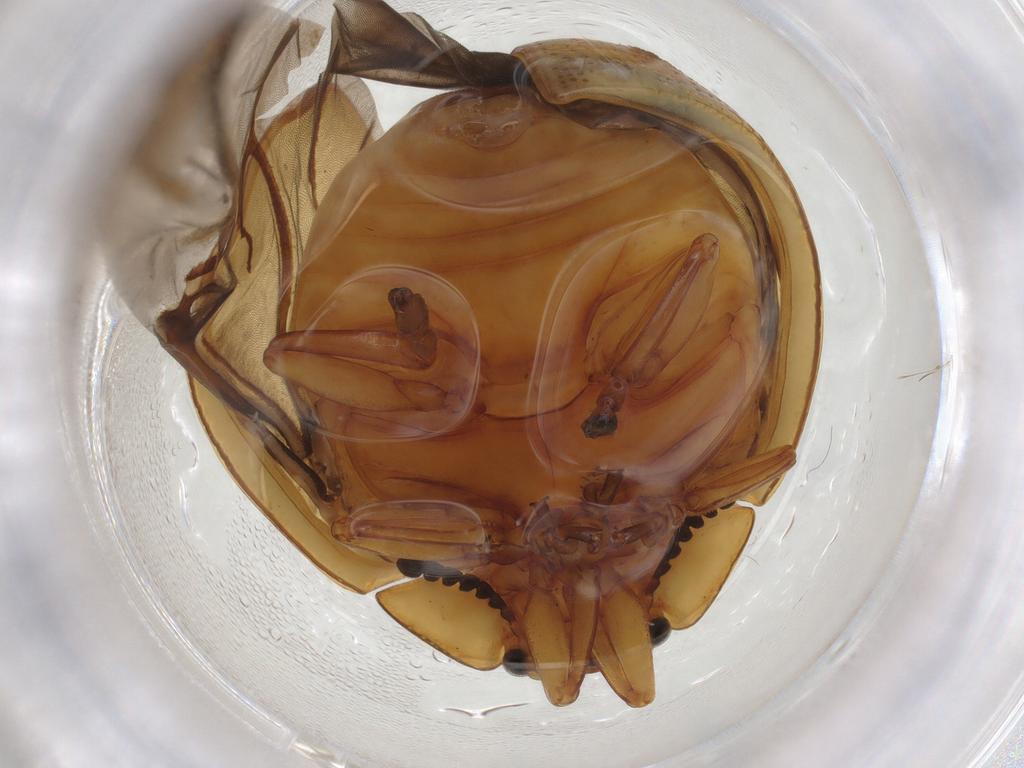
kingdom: Animalia
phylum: Arthropoda
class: Insecta
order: Coleoptera
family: Chrysomelidae
